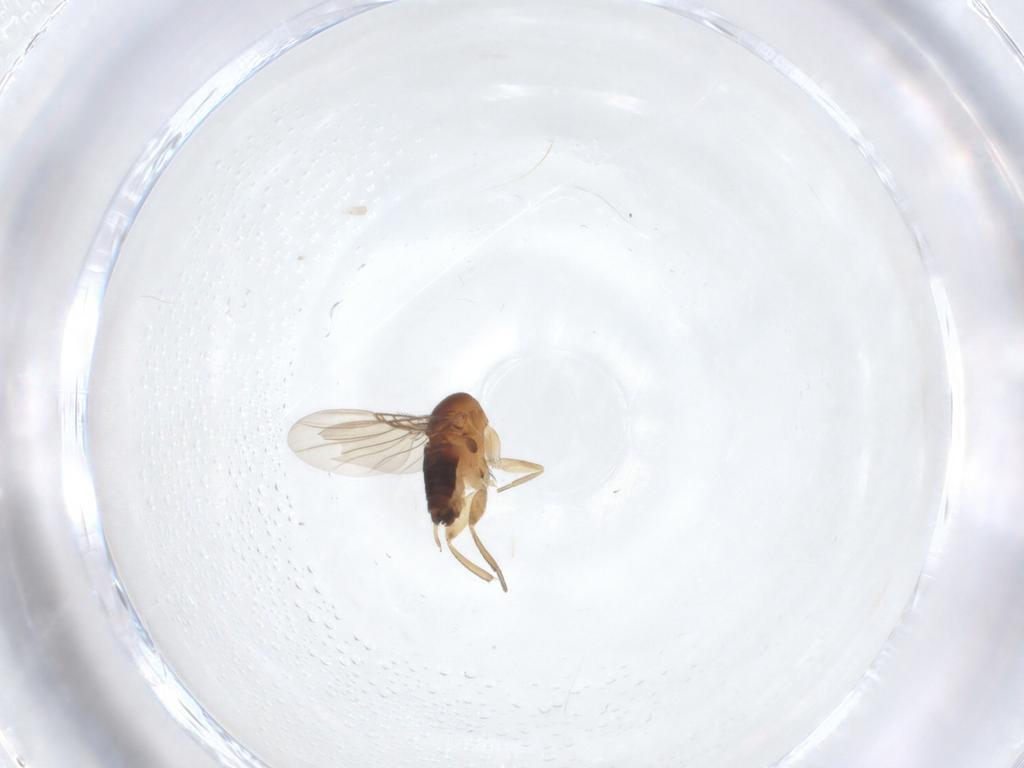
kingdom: Animalia
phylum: Arthropoda
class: Insecta
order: Diptera
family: Phoridae
